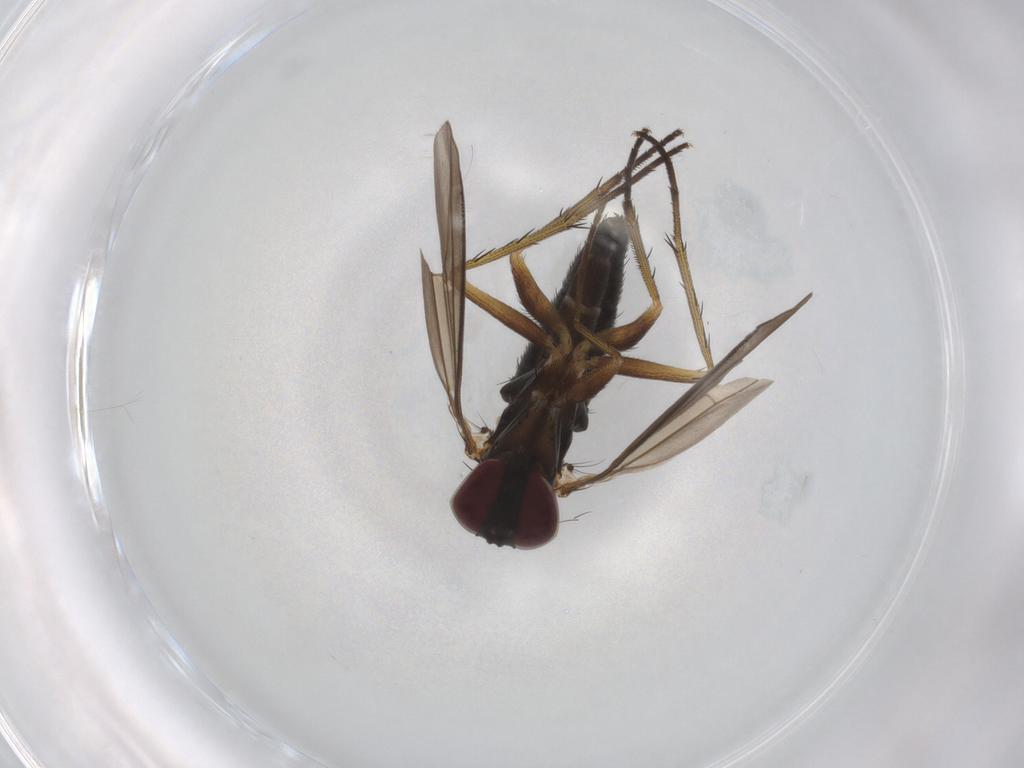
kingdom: Animalia
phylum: Arthropoda
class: Insecta
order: Diptera
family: Dolichopodidae
